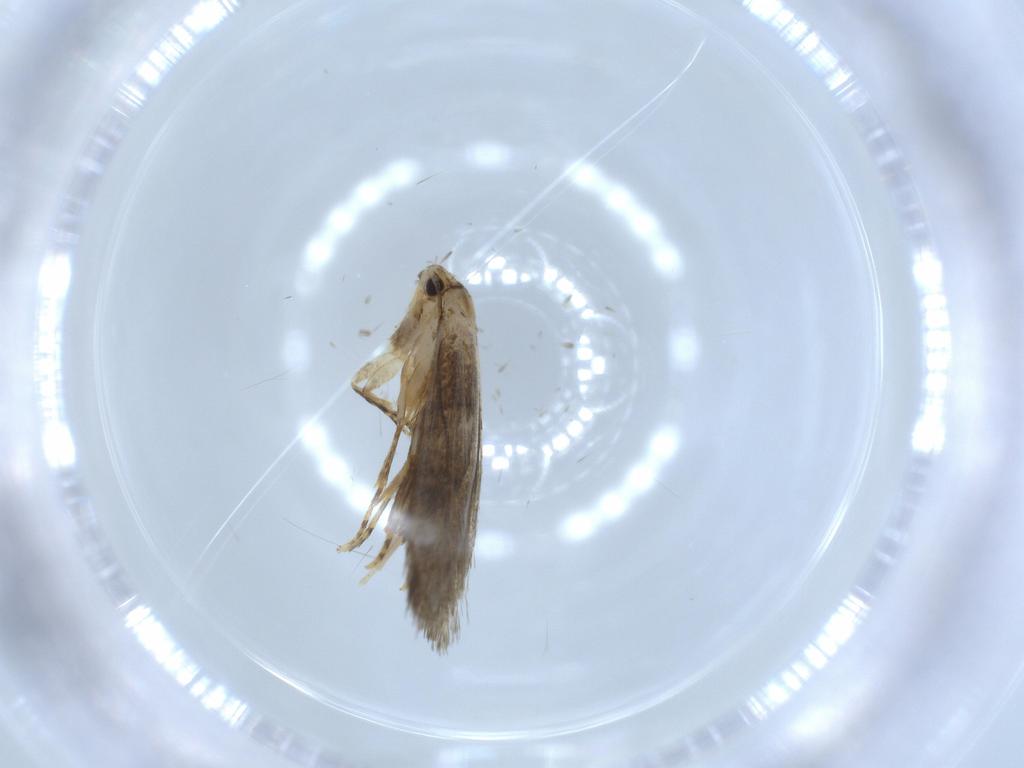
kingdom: Animalia
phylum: Arthropoda
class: Insecta
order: Lepidoptera
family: Tineidae
